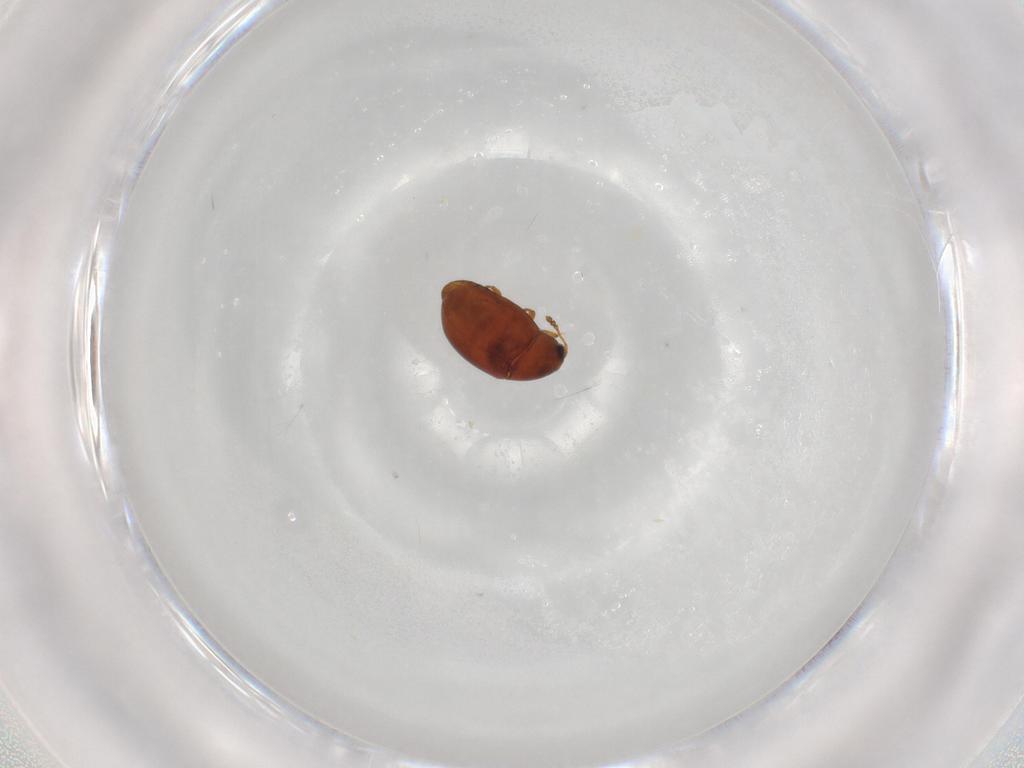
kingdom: Animalia
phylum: Arthropoda
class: Insecta
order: Coleoptera
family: Cryptophagidae
